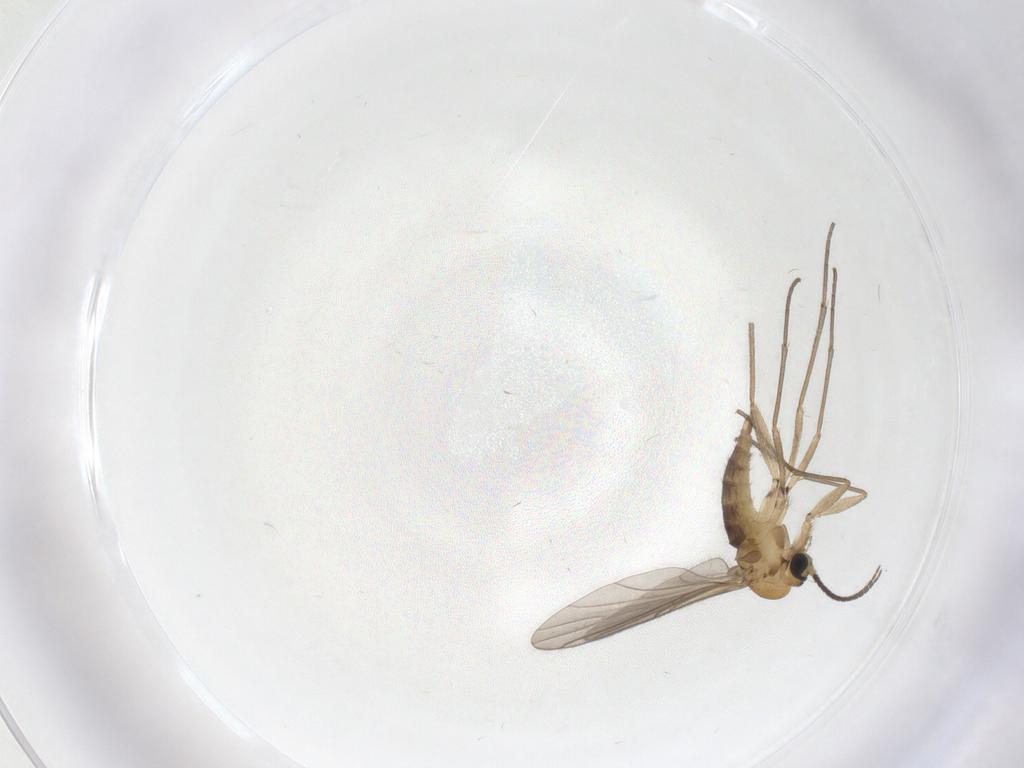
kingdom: Animalia
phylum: Arthropoda
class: Insecta
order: Diptera
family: Sciaridae
